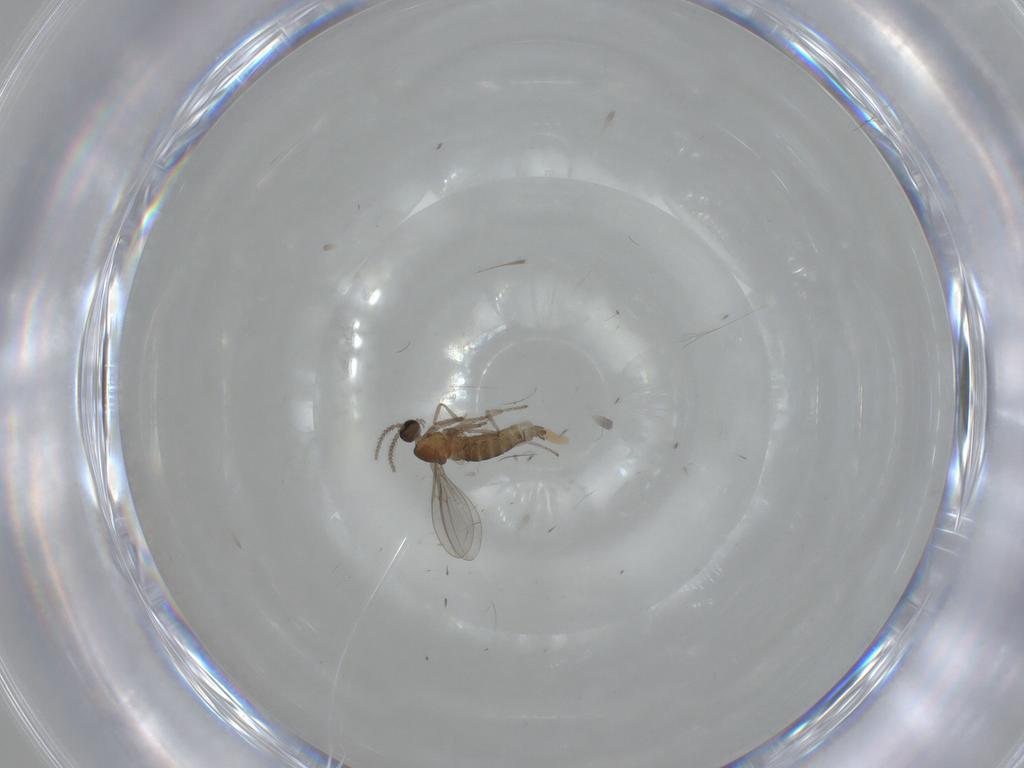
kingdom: Animalia
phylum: Arthropoda
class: Insecta
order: Diptera
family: Cecidomyiidae
